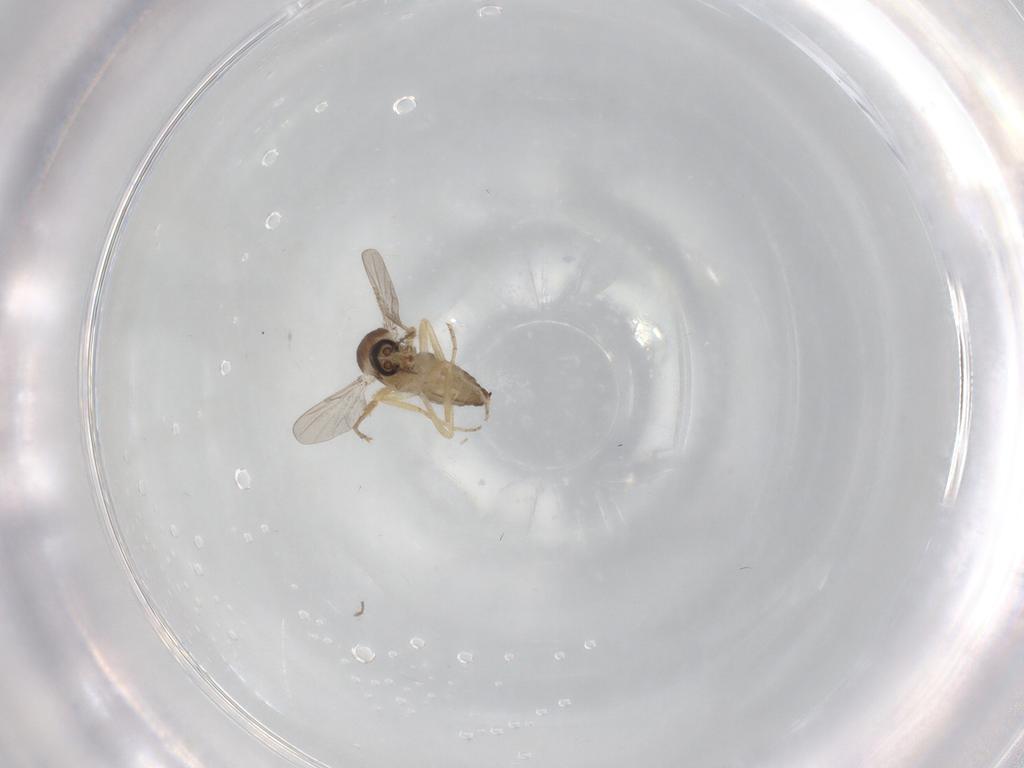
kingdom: Animalia
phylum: Arthropoda
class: Insecta
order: Diptera
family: Ceratopogonidae
